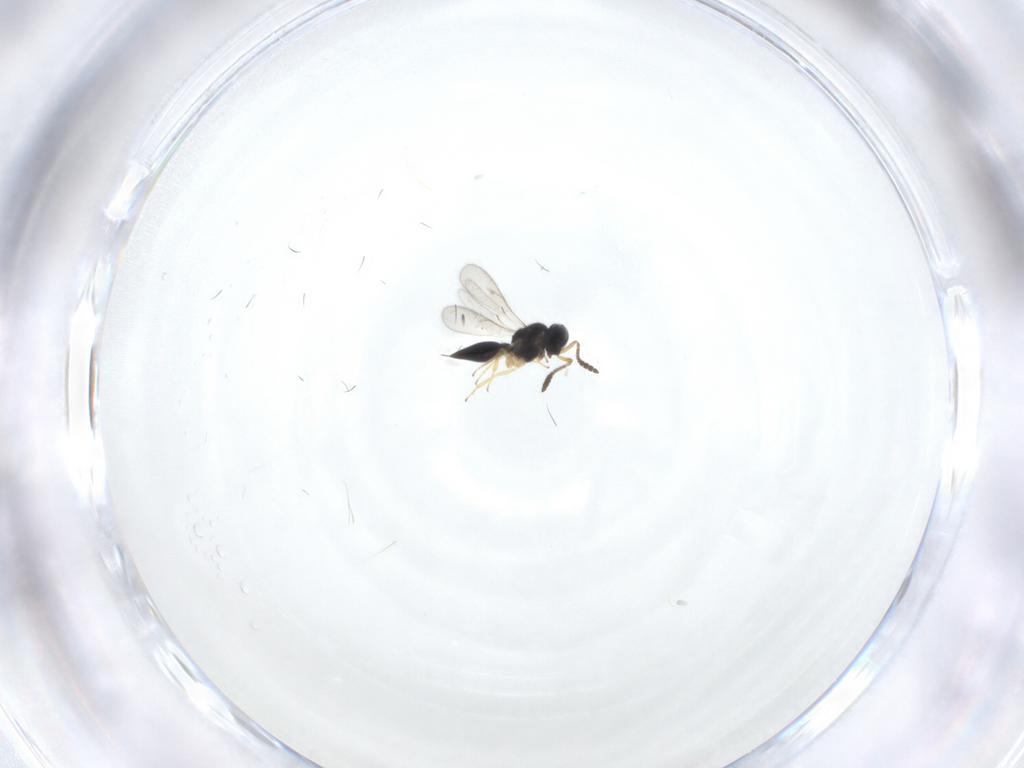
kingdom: Animalia
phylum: Arthropoda
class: Insecta
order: Hymenoptera
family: Scelionidae
